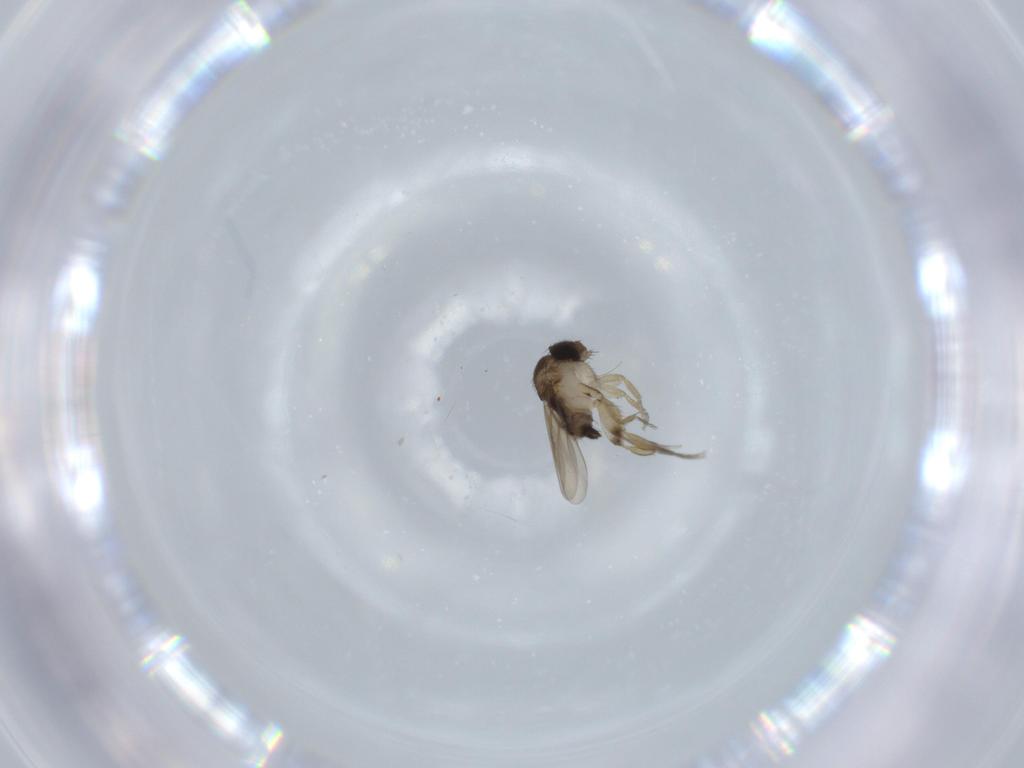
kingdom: Animalia
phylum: Arthropoda
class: Insecta
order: Diptera
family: Phoridae
